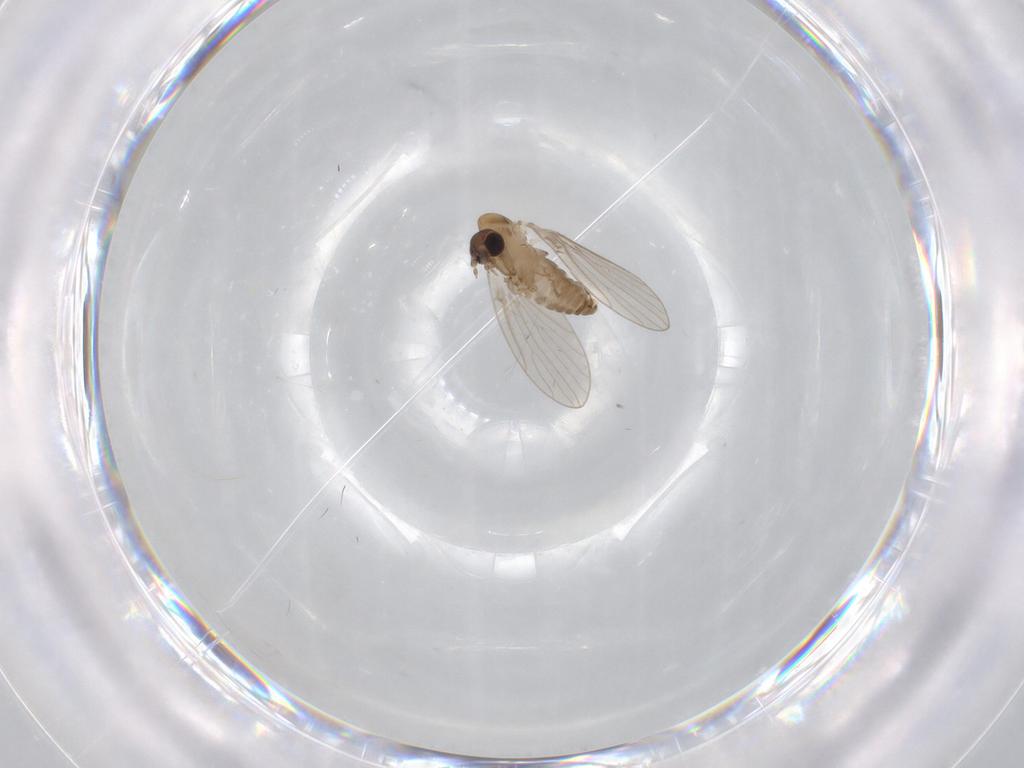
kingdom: Animalia
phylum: Arthropoda
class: Insecta
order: Diptera
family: Psychodidae
